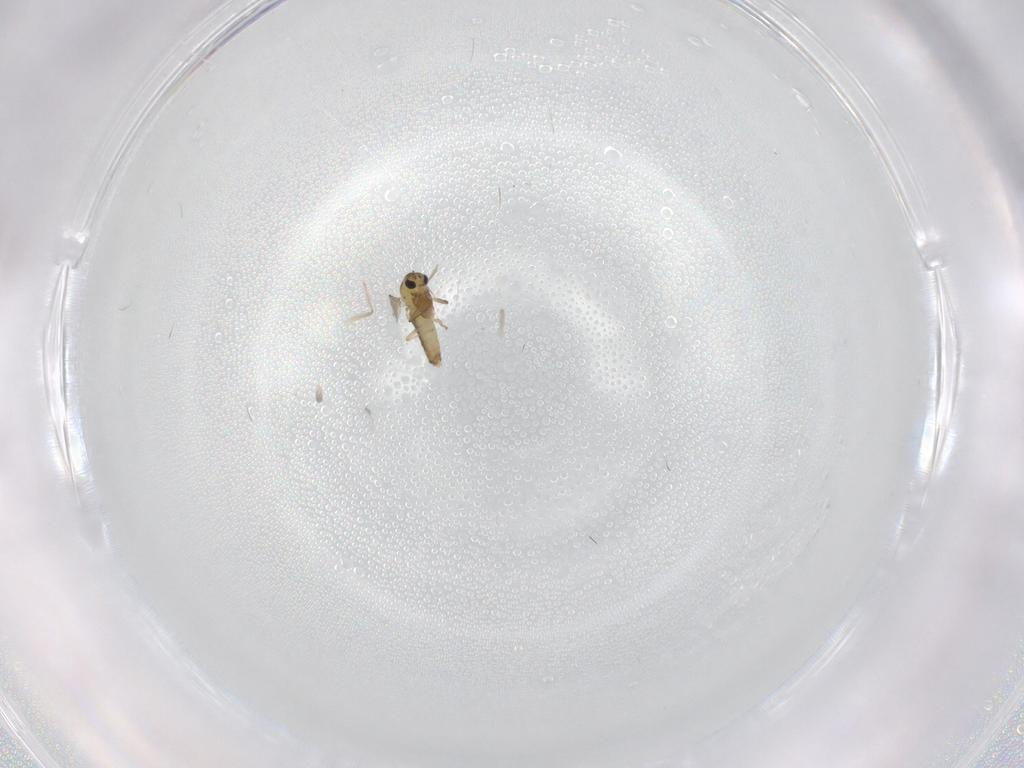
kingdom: Animalia
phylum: Arthropoda
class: Insecta
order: Diptera
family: Chironomidae
